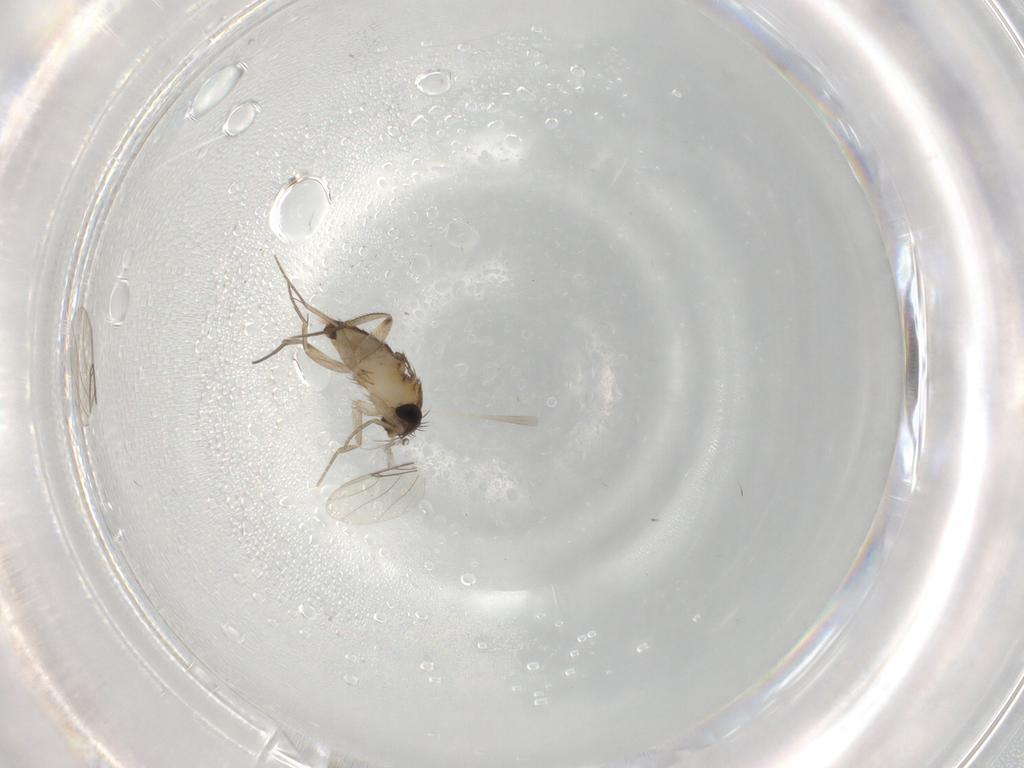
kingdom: Animalia
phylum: Arthropoda
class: Insecta
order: Diptera
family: Phoridae
